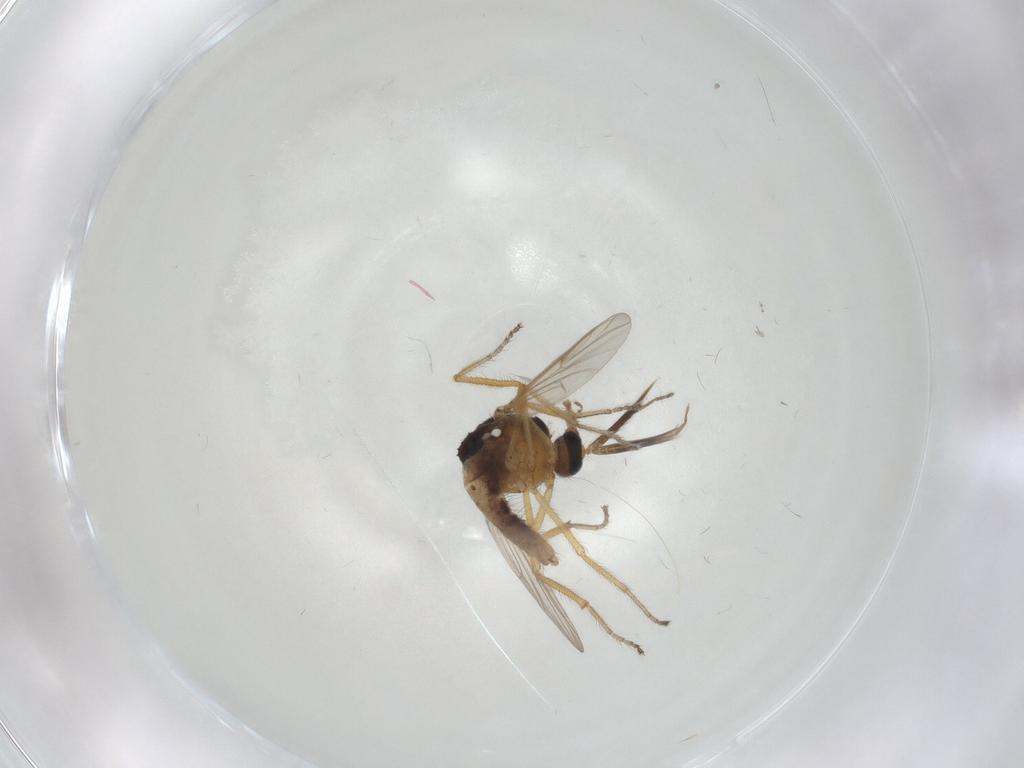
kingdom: Animalia
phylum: Arthropoda
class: Insecta
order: Diptera
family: Ceratopogonidae
